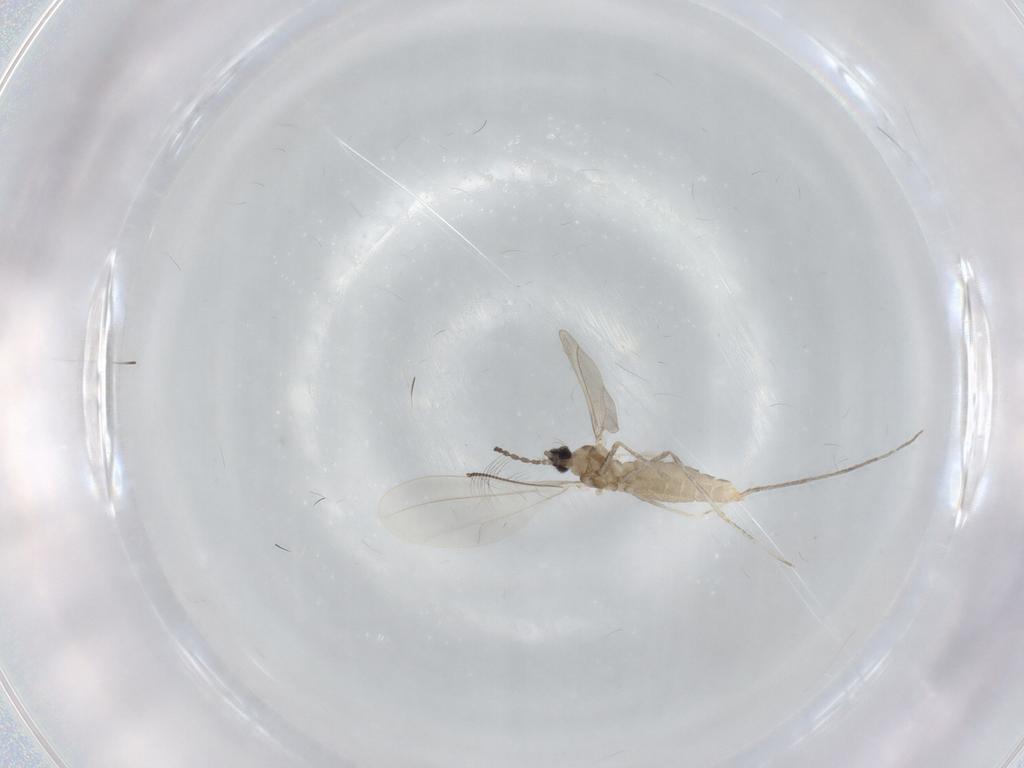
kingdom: Animalia
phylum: Arthropoda
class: Insecta
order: Diptera
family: Cecidomyiidae
